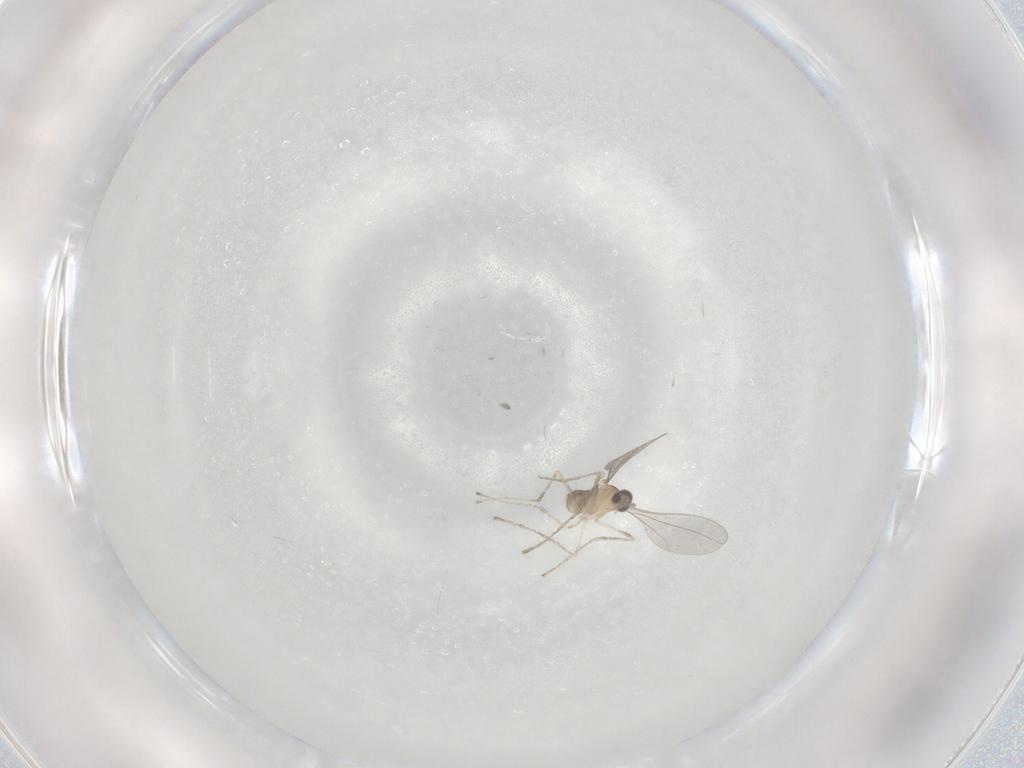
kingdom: Animalia
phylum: Arthropoda
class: Insecta
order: Diptera
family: Cecidomyiidae
